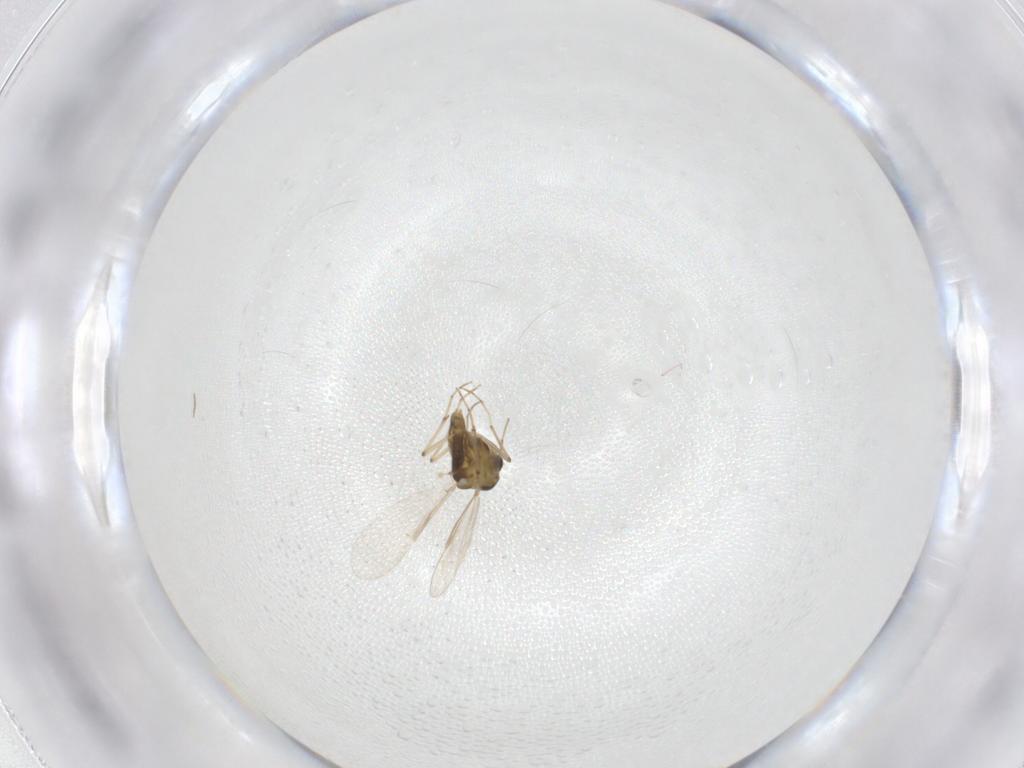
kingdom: Animalia
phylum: Arthropoda
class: Insecta
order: Diptera
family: Chironomidae
